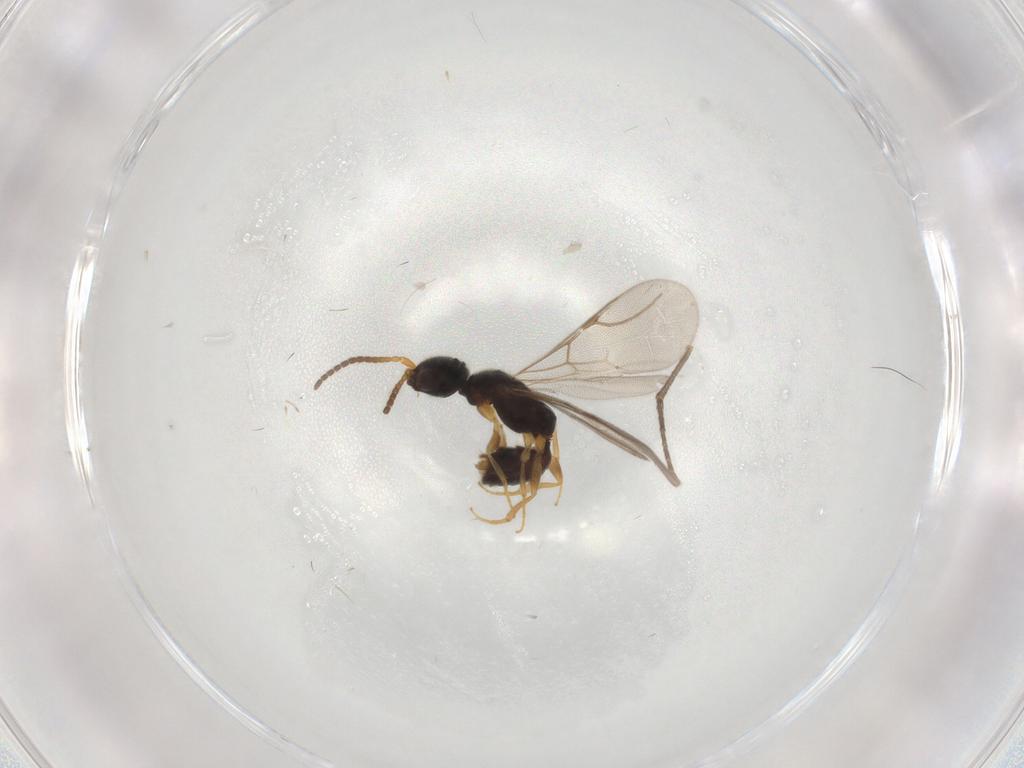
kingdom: Animalia
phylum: Arthropoda
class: Insecta
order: Hymenoptera
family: Bethylidae
